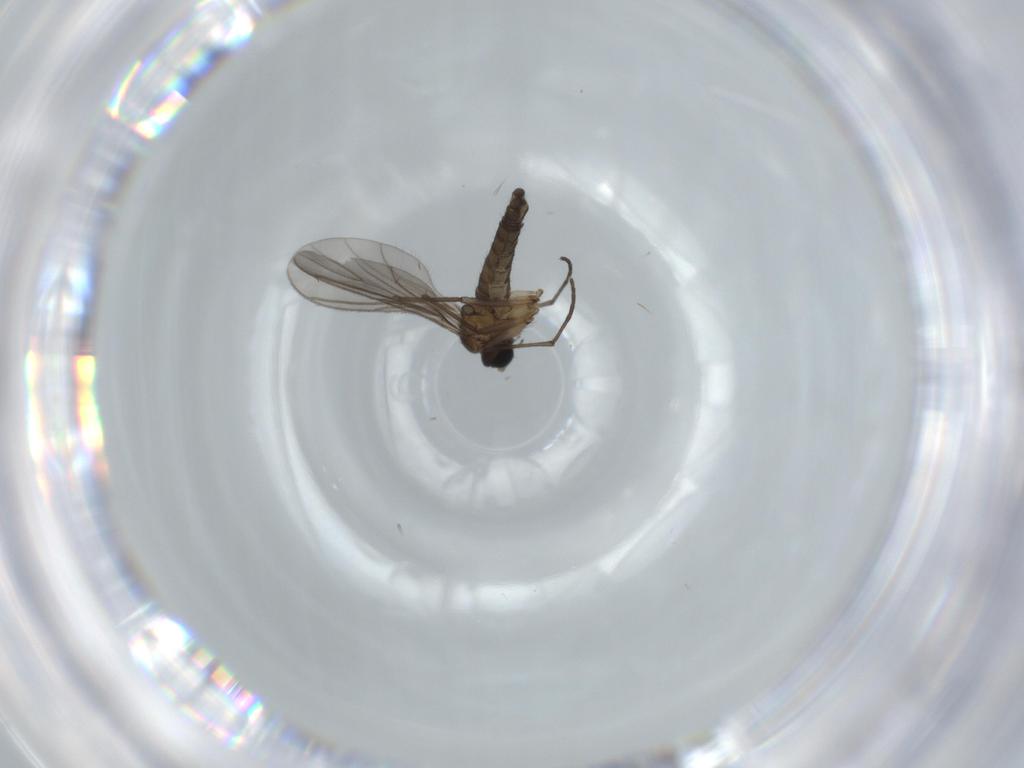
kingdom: Animalia
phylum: Arthropoda
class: Insecta
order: Diptera
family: Sciaridae
